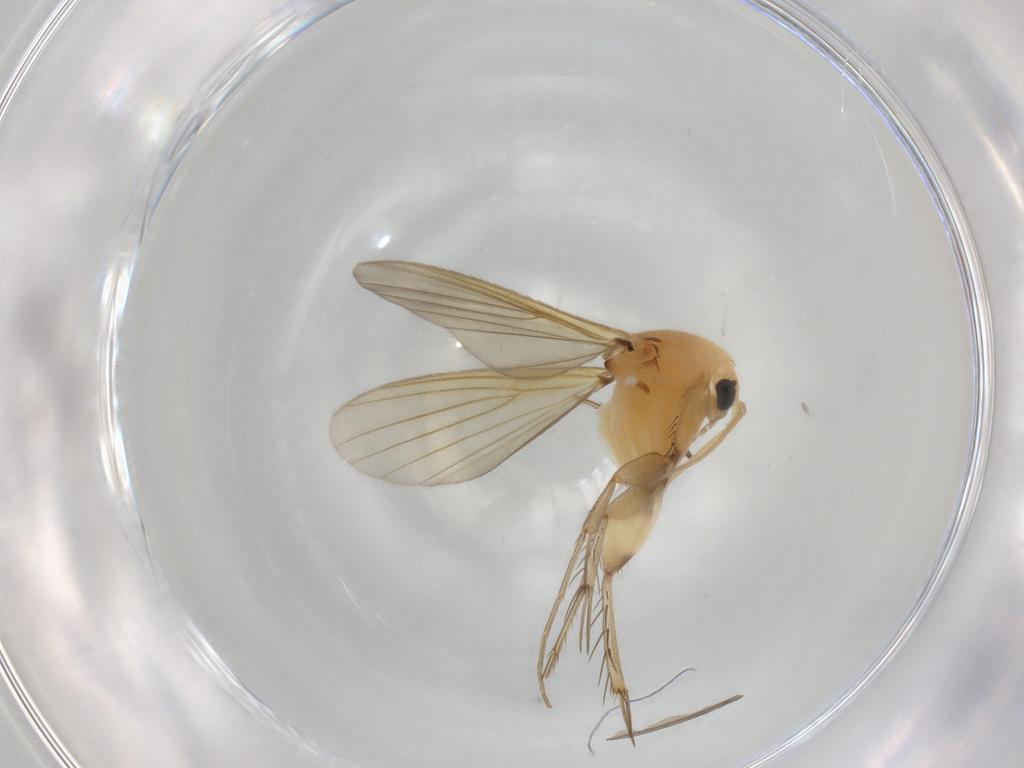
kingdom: Animalia
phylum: Arthropoda
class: Insecta
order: Diptera
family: Mycetophilidae
